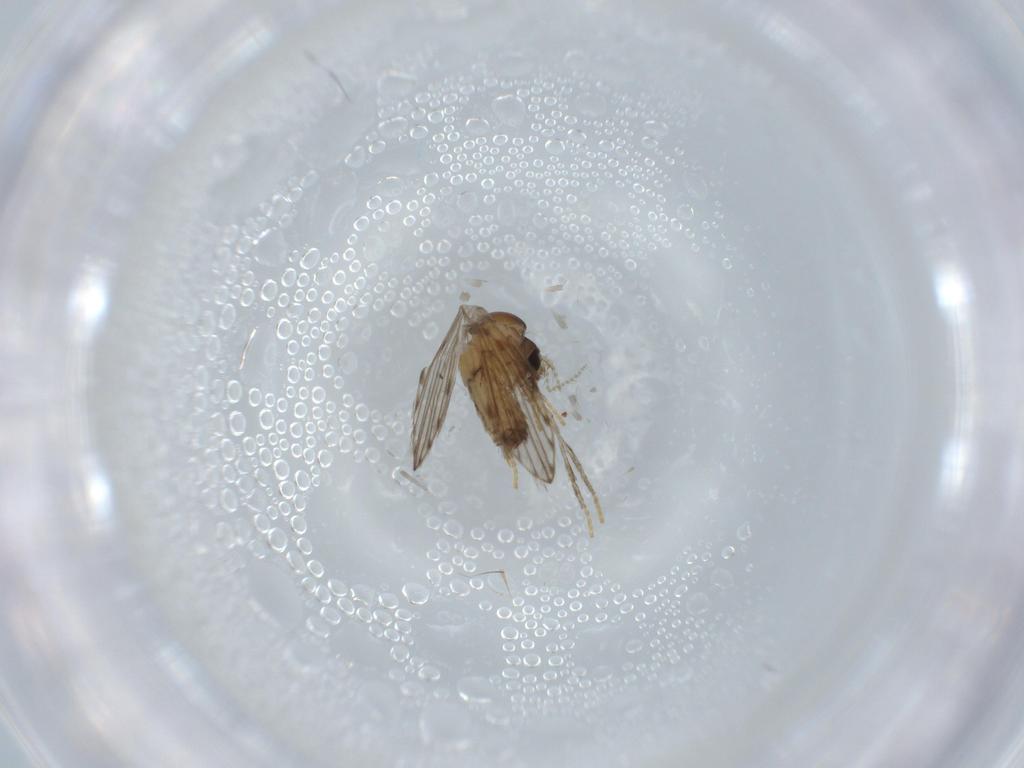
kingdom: Animalia
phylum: Arthropoda
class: Insecta
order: Diptera
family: Psychodidae
